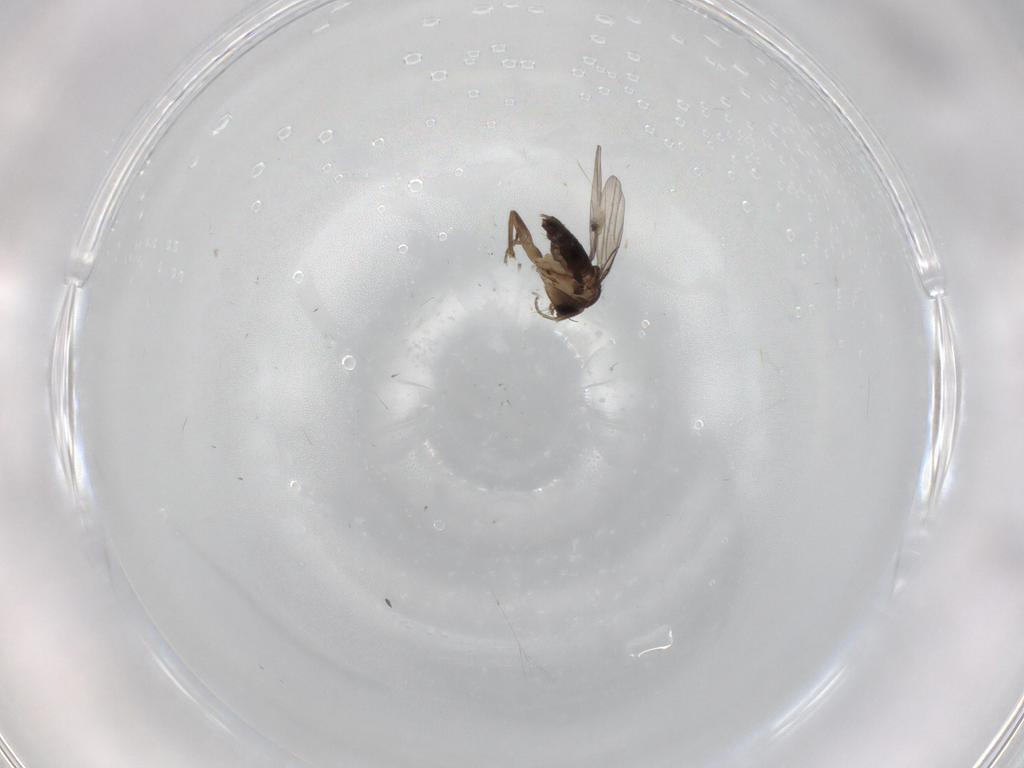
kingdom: Animalia
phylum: Arthropoda
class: Insecta
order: Diptera
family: Phoridae
